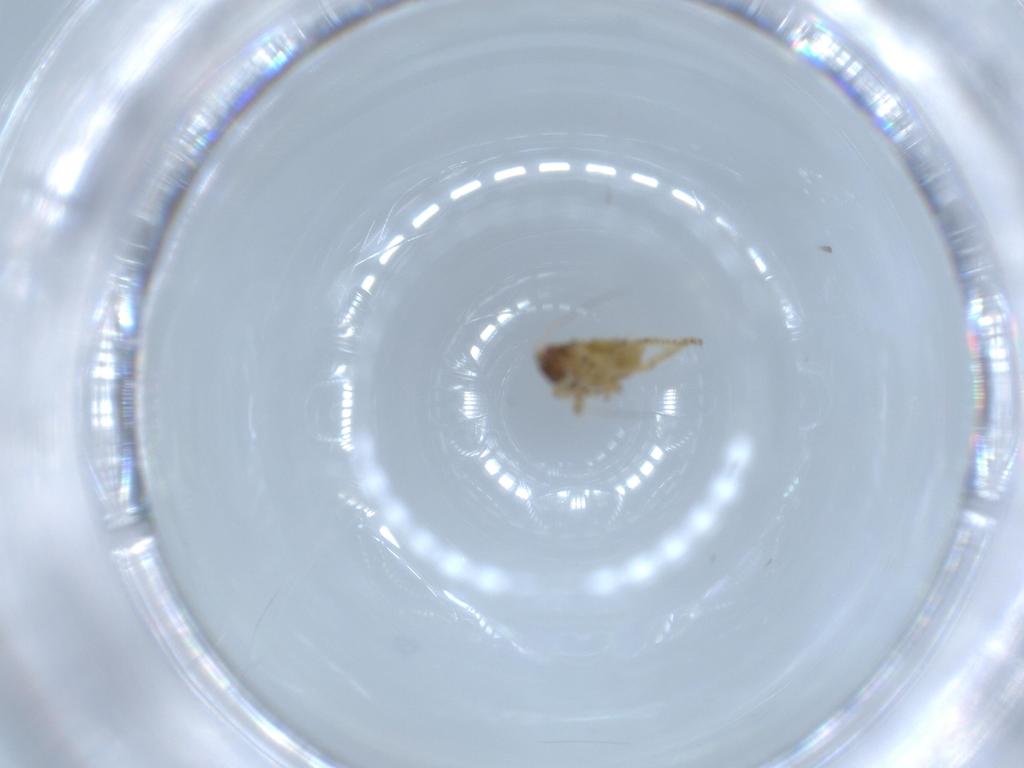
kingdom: Animalia
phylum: Arthropoda
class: Insecta
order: Hemiptera
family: Cicadellidae
